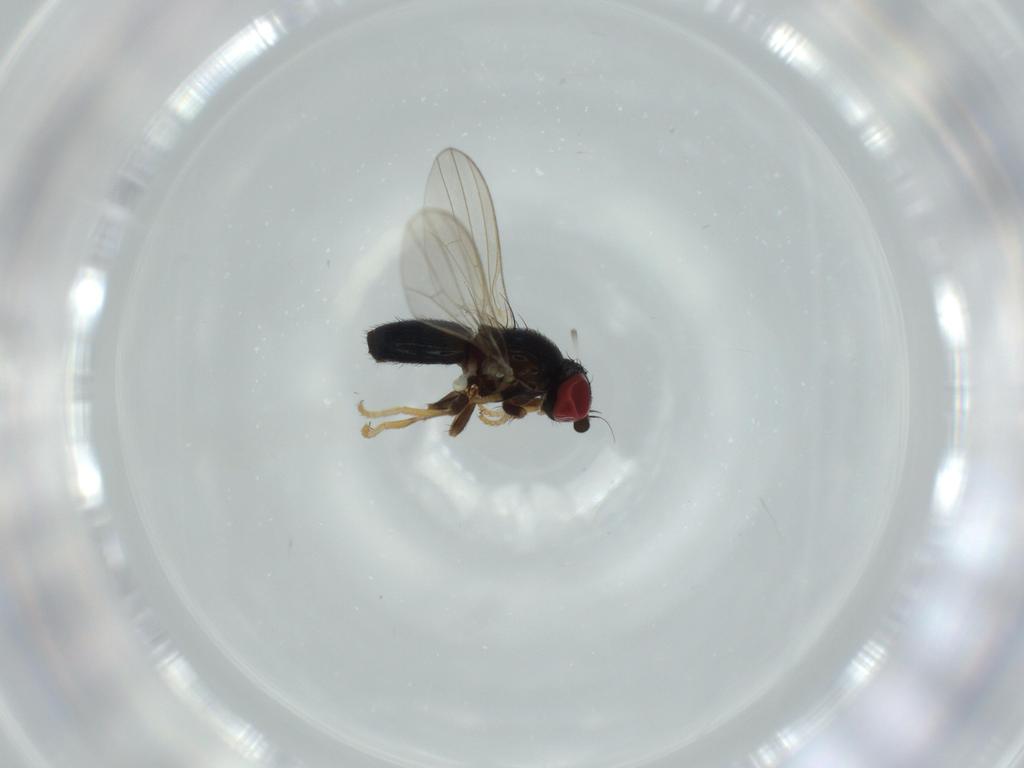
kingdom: Animalia
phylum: Arthropoda
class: Insecta
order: Diptera
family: Chamaemyiidae
